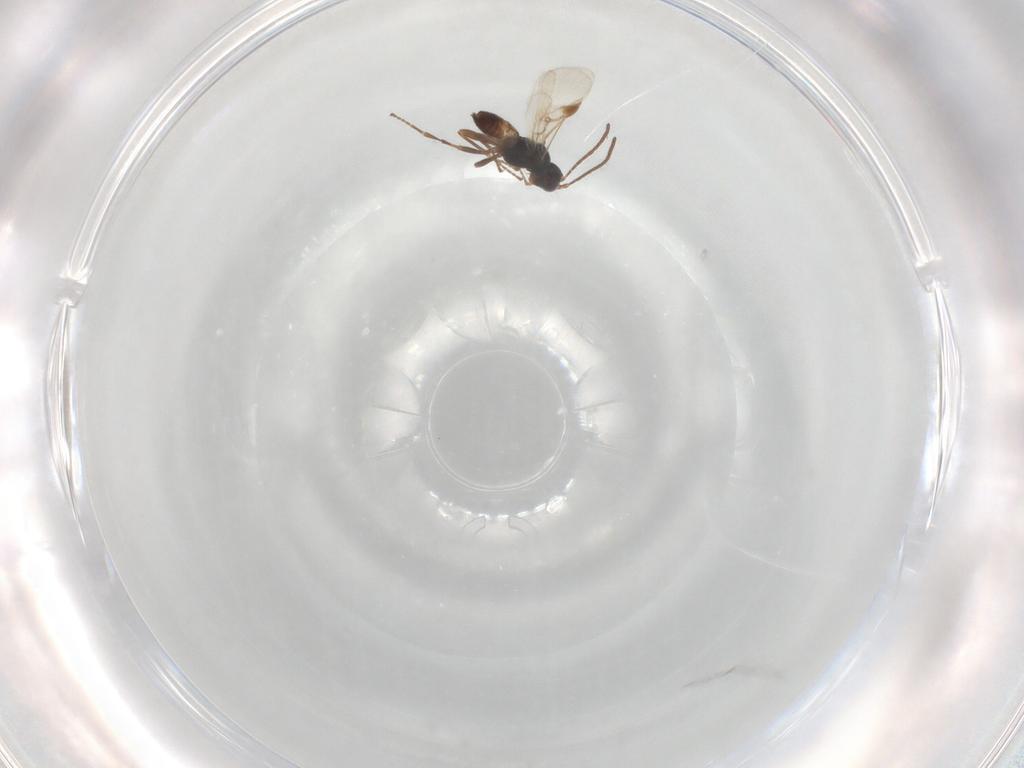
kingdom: Animalia
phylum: Arthropoda
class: Insecta
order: Hymenoptera
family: Braconidae
